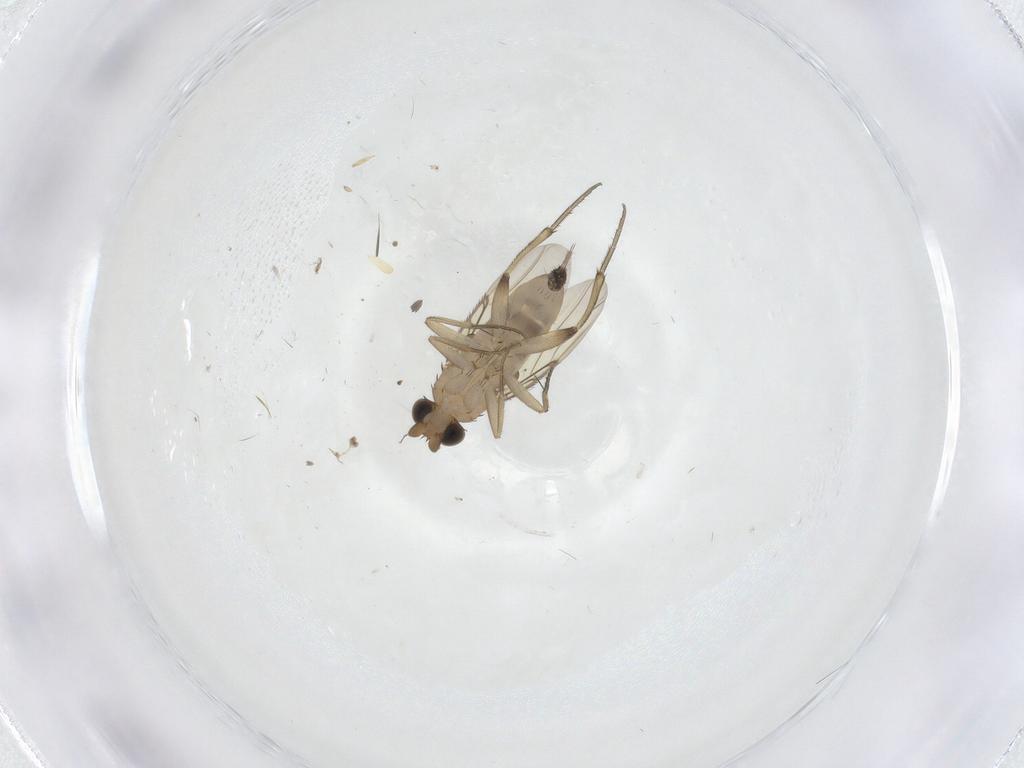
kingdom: Animalia
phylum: Arthropoda
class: Insecta
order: Diptera
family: Phoridae
